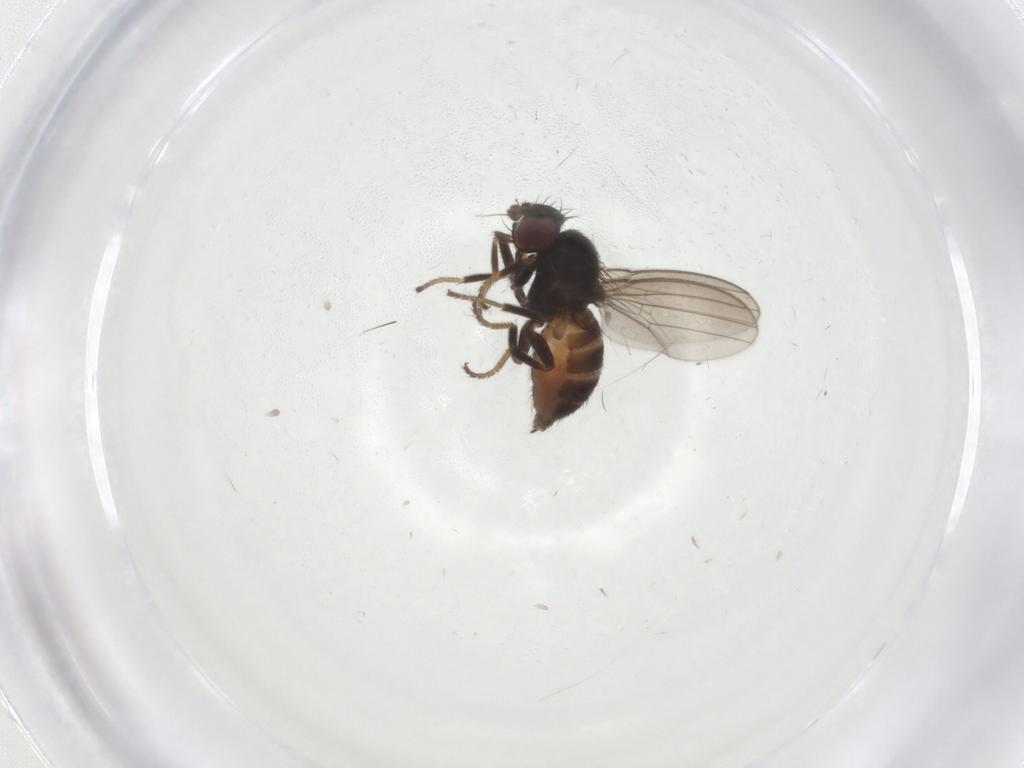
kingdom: Animalia
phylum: Arthropoda
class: Insecta
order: Diptera
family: Milichiidae
